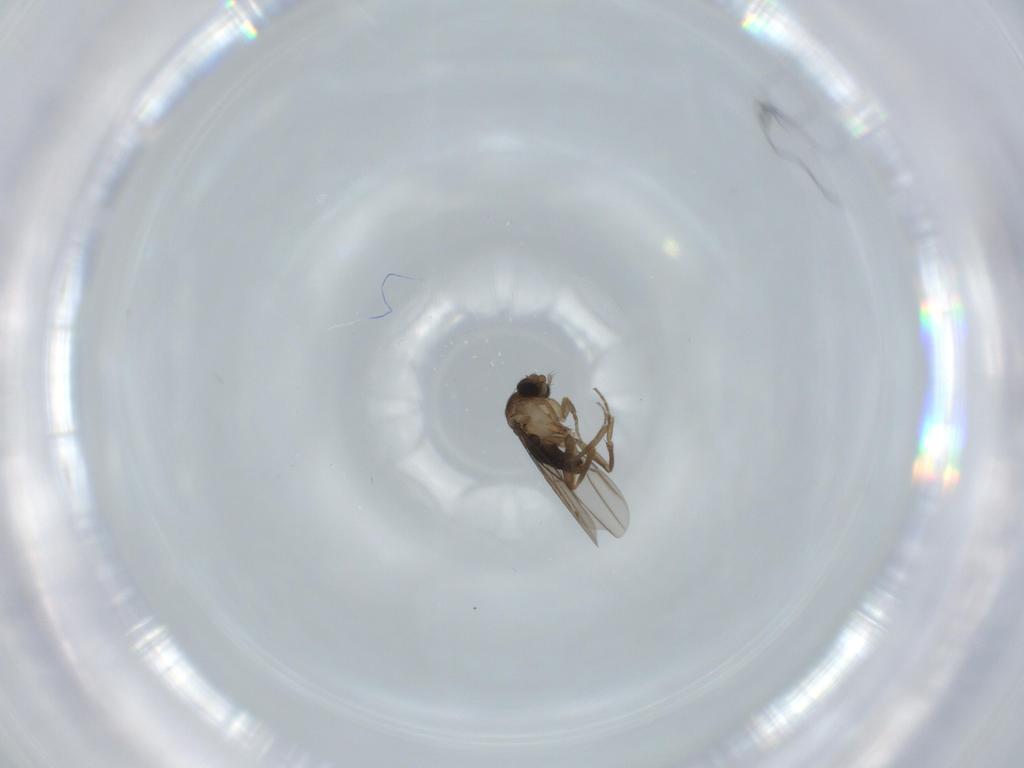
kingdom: Animalia
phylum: Arthropoda
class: Insecta
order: Diptera
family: Phoridae
